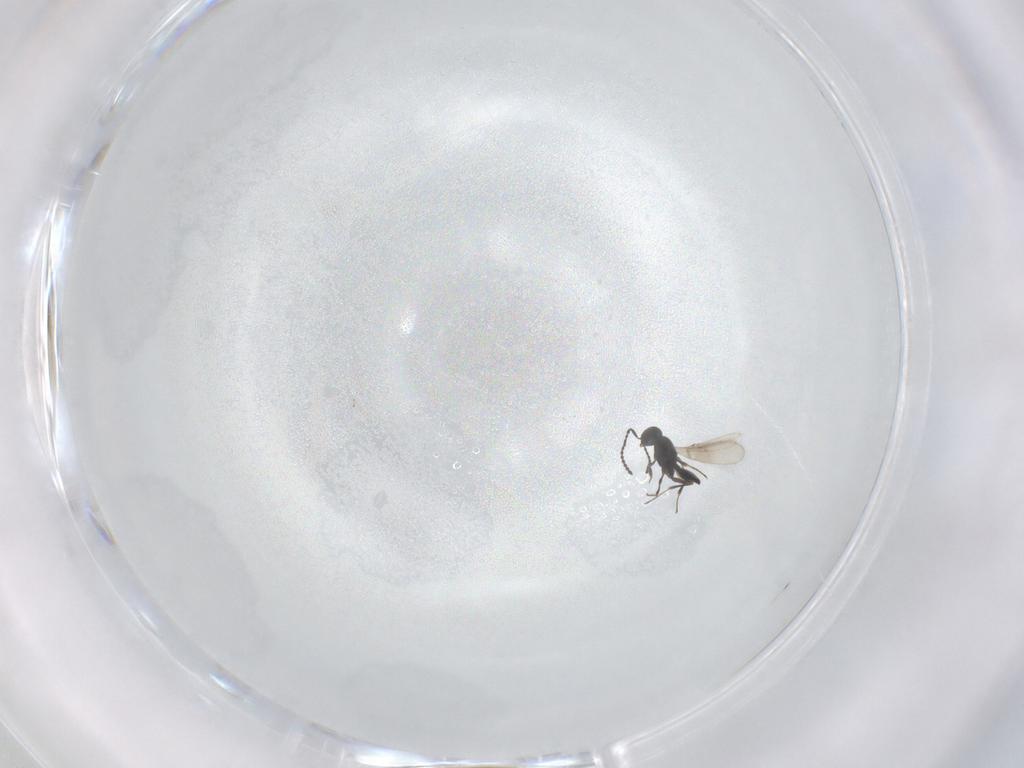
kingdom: Animalia
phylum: Arthropoda
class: Insecta
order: Hymenoptera
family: Scelionidae
